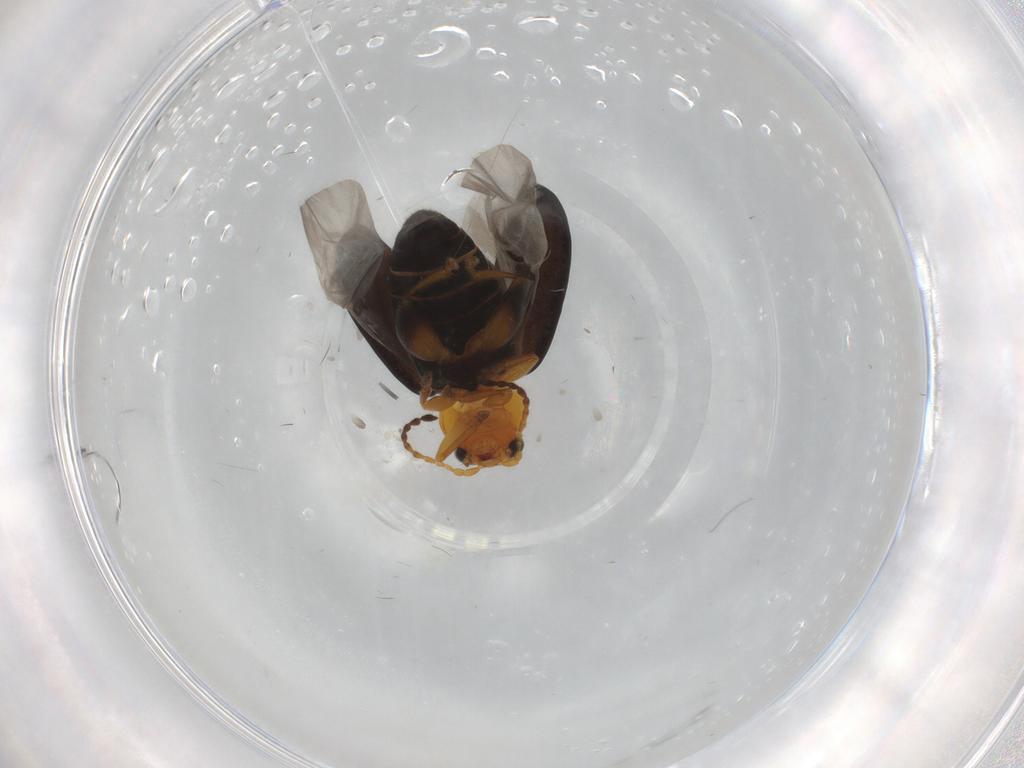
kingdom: Animalia
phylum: Arthropoda
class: Insecta
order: Coleoptera
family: Chrysomelidae
